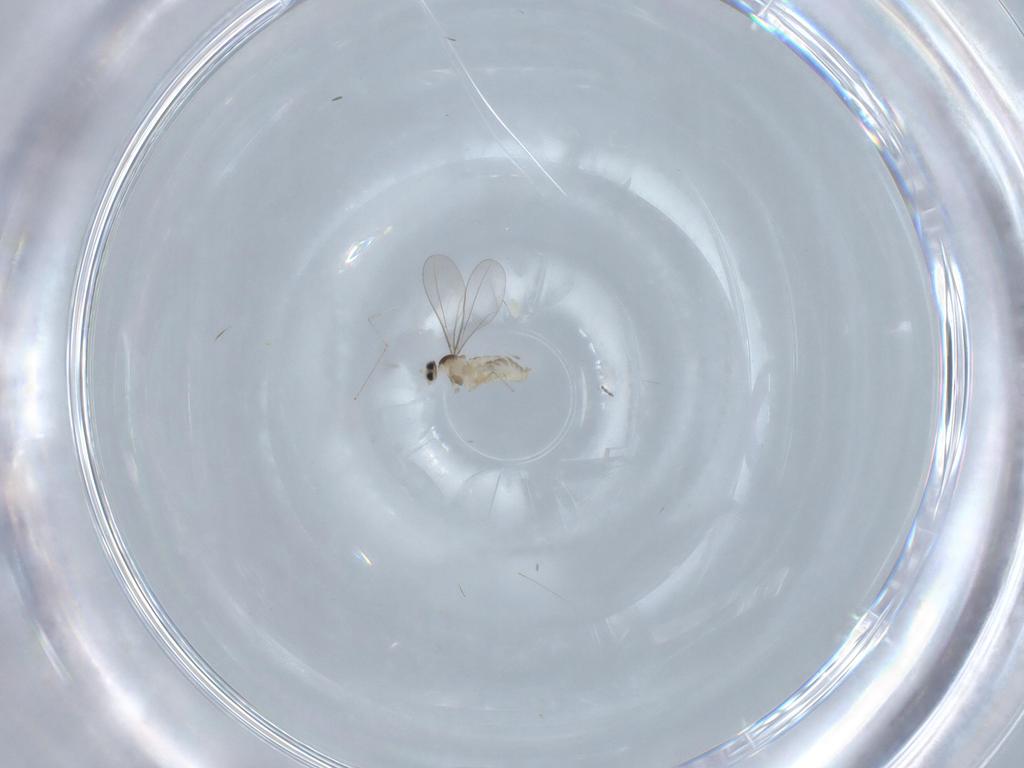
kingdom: Animalia
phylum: Arthropoda
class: Insecta
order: Diptera
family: Cecidomyiidae
